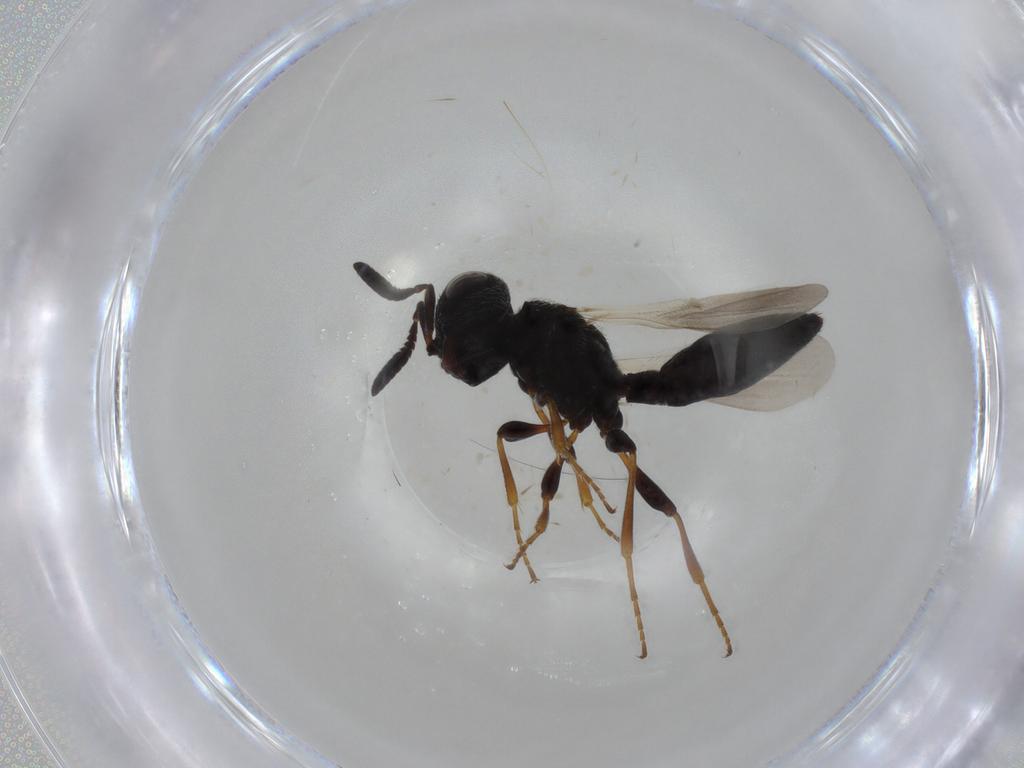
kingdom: Animalia
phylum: Arthropoda
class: Insecta
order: Hymenoptera
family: Scelionidae
